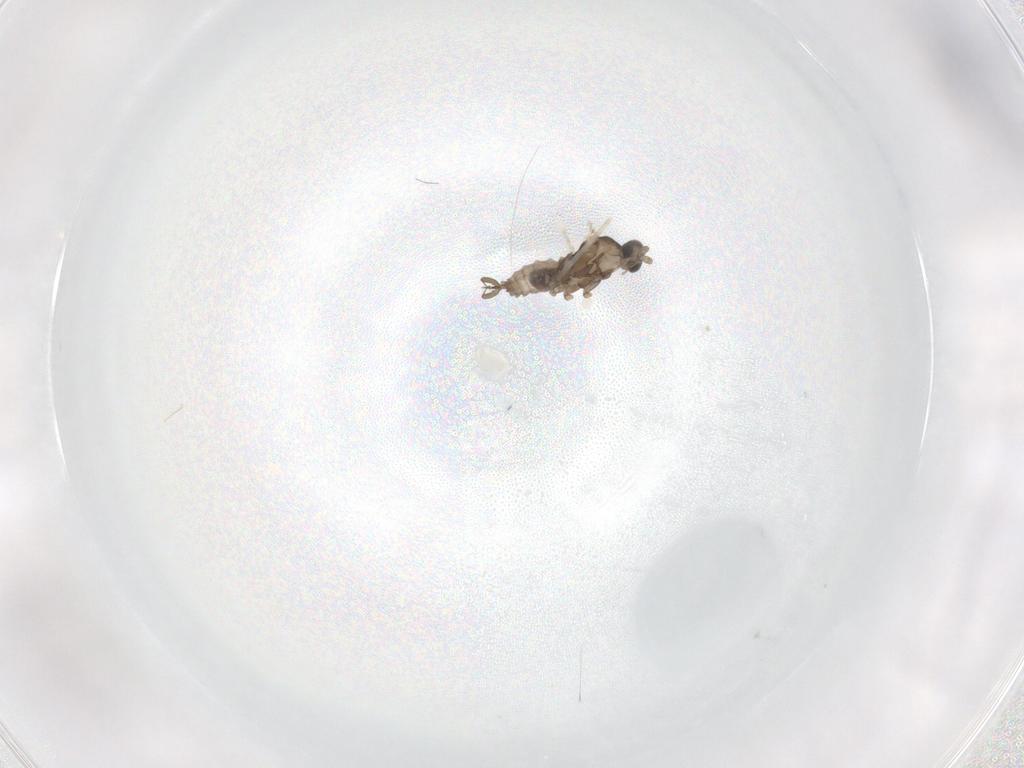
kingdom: Animalia
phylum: Arthropoda
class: Insecta
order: Diptera
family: Cecidomyiidae
